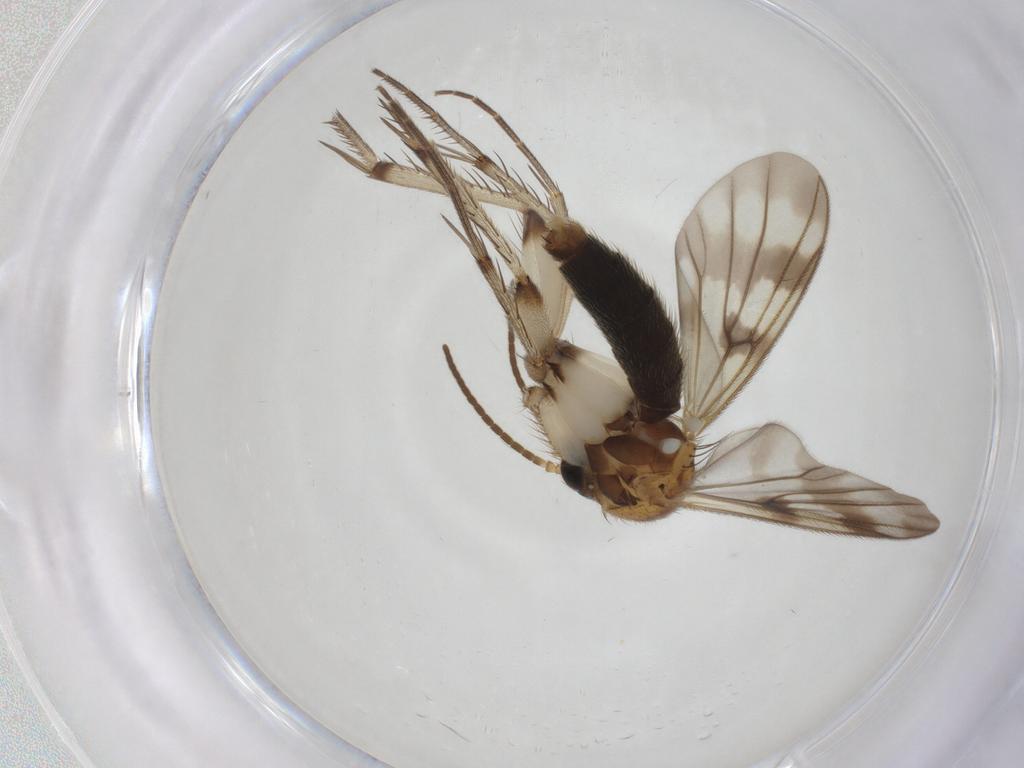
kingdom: Animalia
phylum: Arthropoda
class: Insecta
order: Diptera
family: Mycetophilidae
